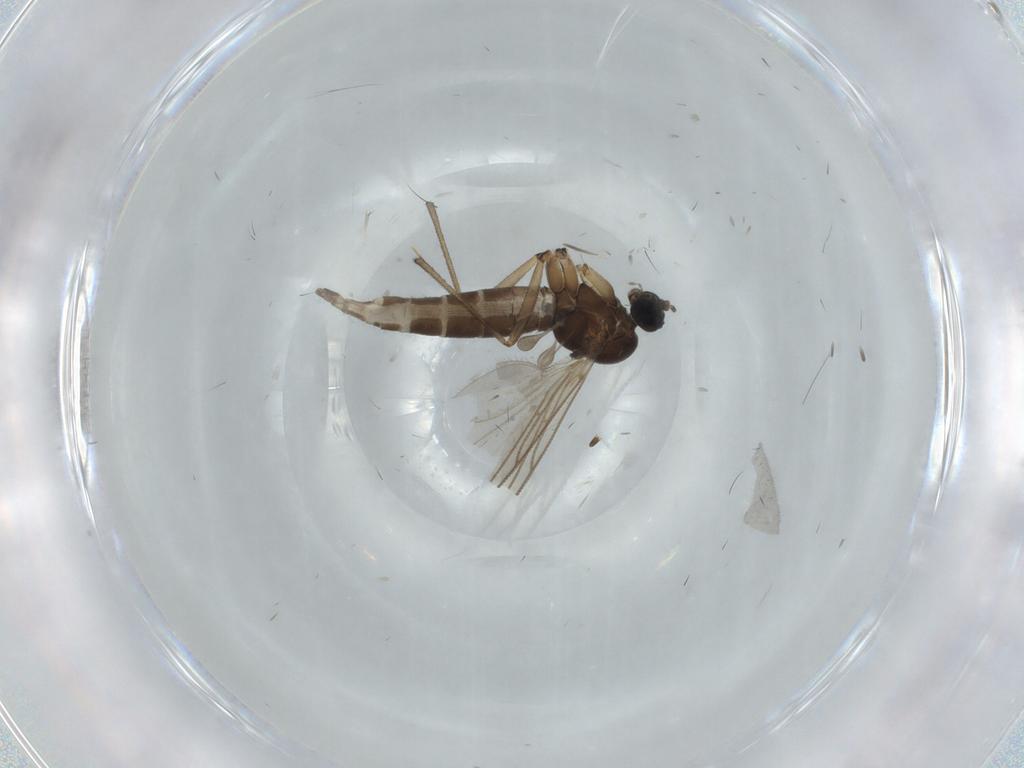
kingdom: Animalia
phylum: Arthropoda
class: Insecta
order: Diptera
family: Sciaridae
